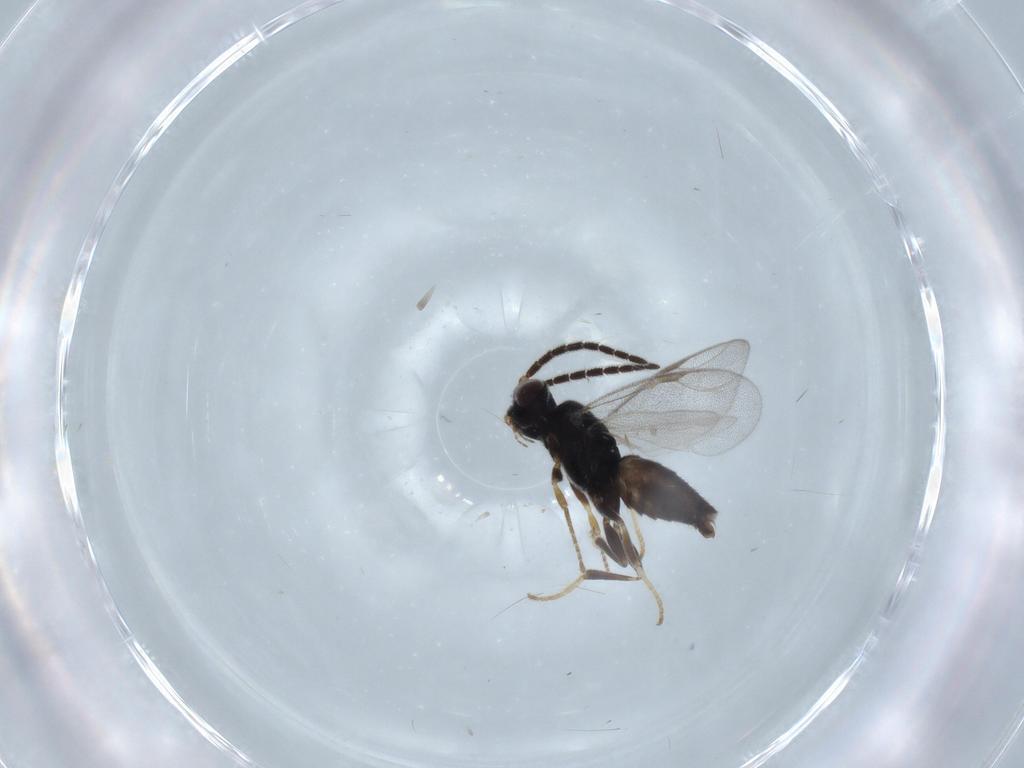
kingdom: Animalia
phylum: Arthropoda
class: Insecta
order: Hymenoptera
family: Dryinidae
